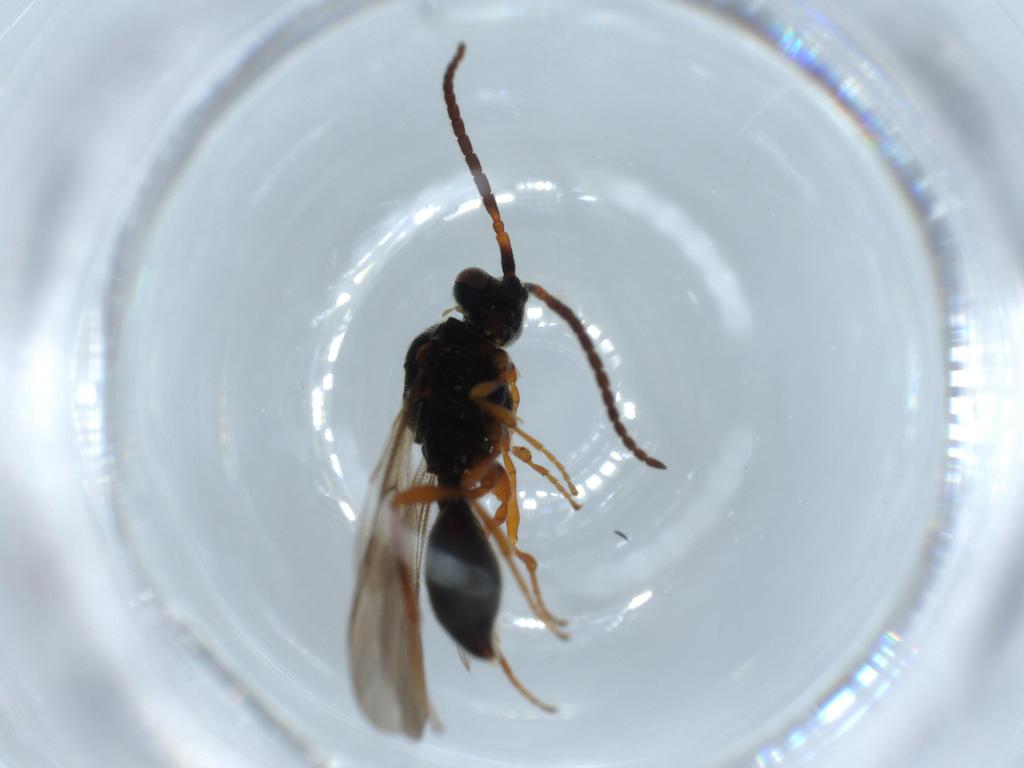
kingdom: Animalia
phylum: Arthropoda
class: Insecta
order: Hymenoptera
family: Diapriidae
